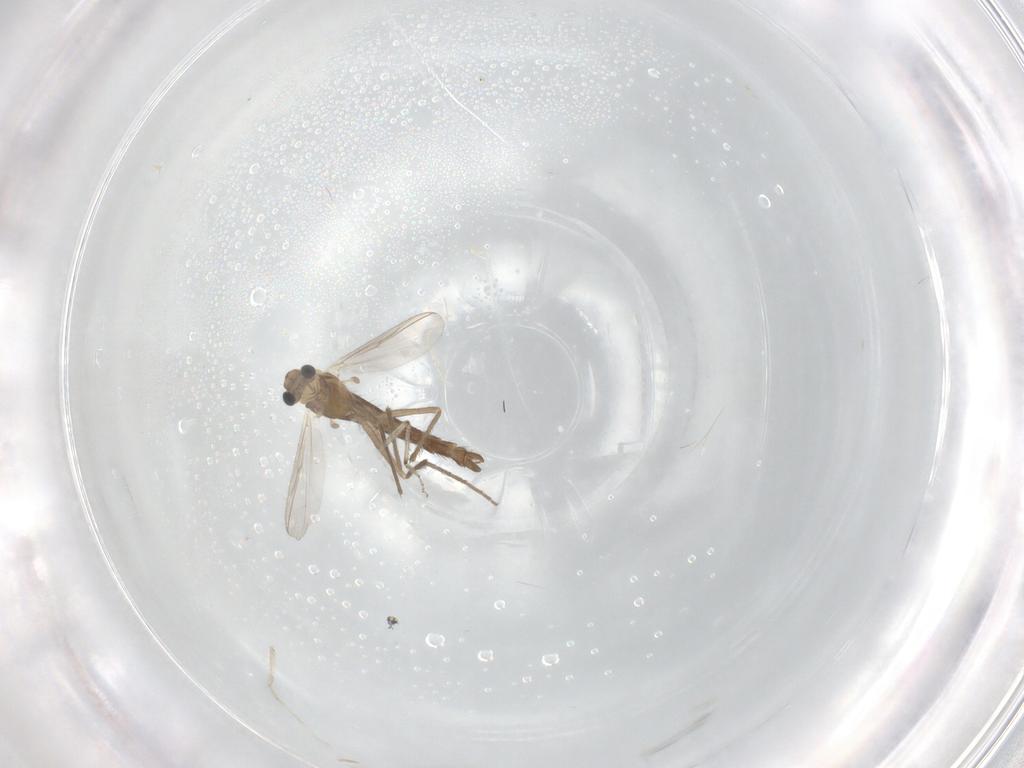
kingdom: Animalia
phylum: Arthropoda
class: Insecta
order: Diptera
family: Chironomidae
